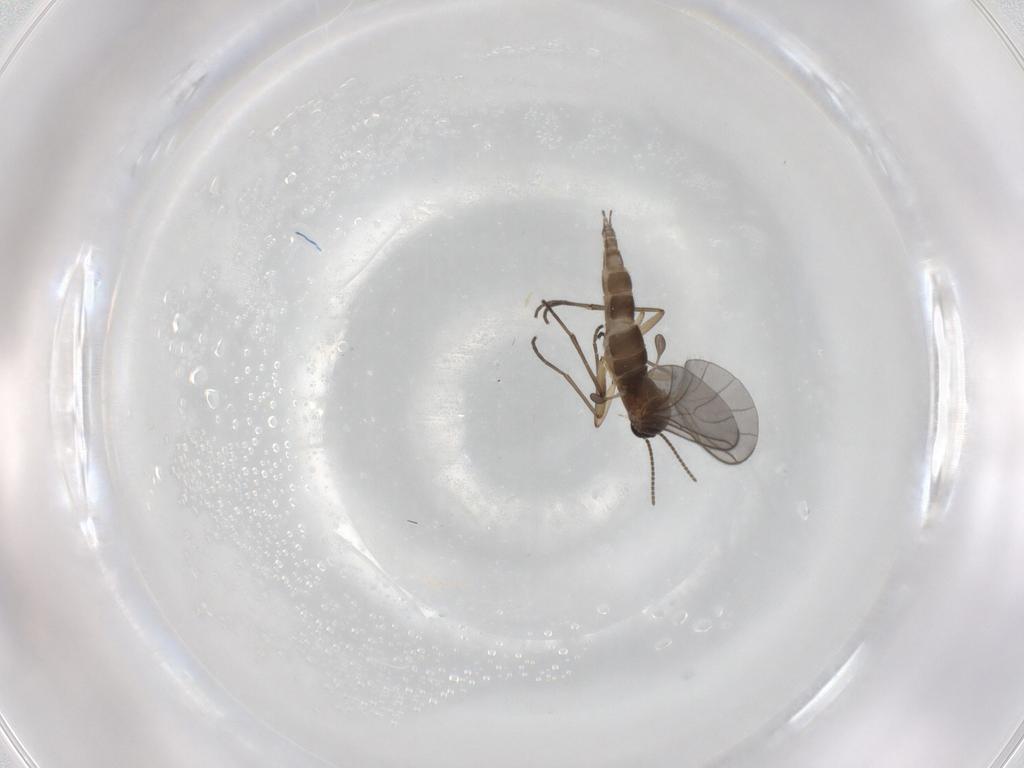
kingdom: Animalia
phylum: Arthropoda
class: Insecta
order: Diptera
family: Sciaridae
